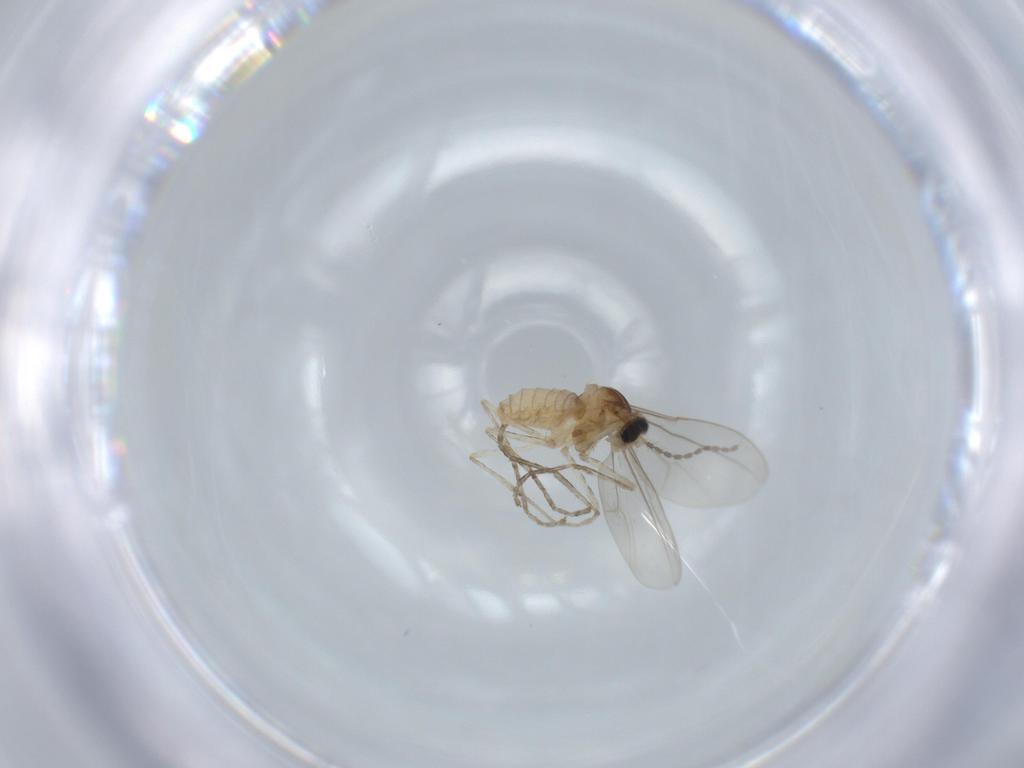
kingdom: Animalia
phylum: Arthropoda
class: Insecta
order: Diptera
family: Cecidomyiidae
